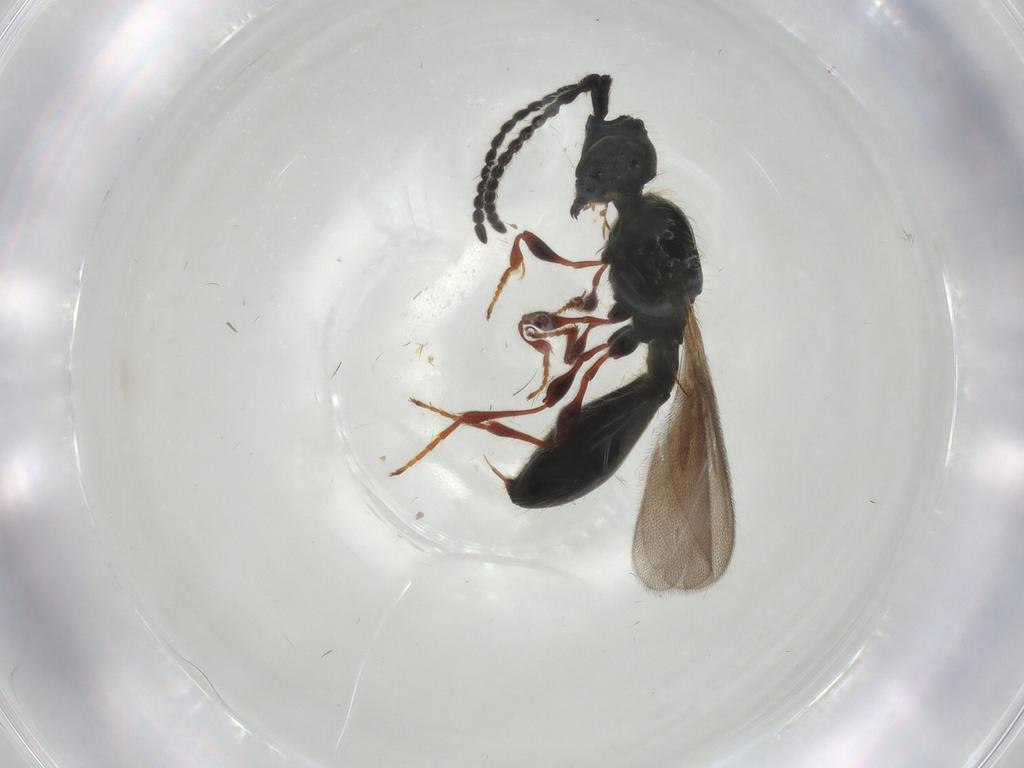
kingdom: Animalia
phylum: Arthropoda
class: Insecta
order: Hymenoptera
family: Diapriidae
